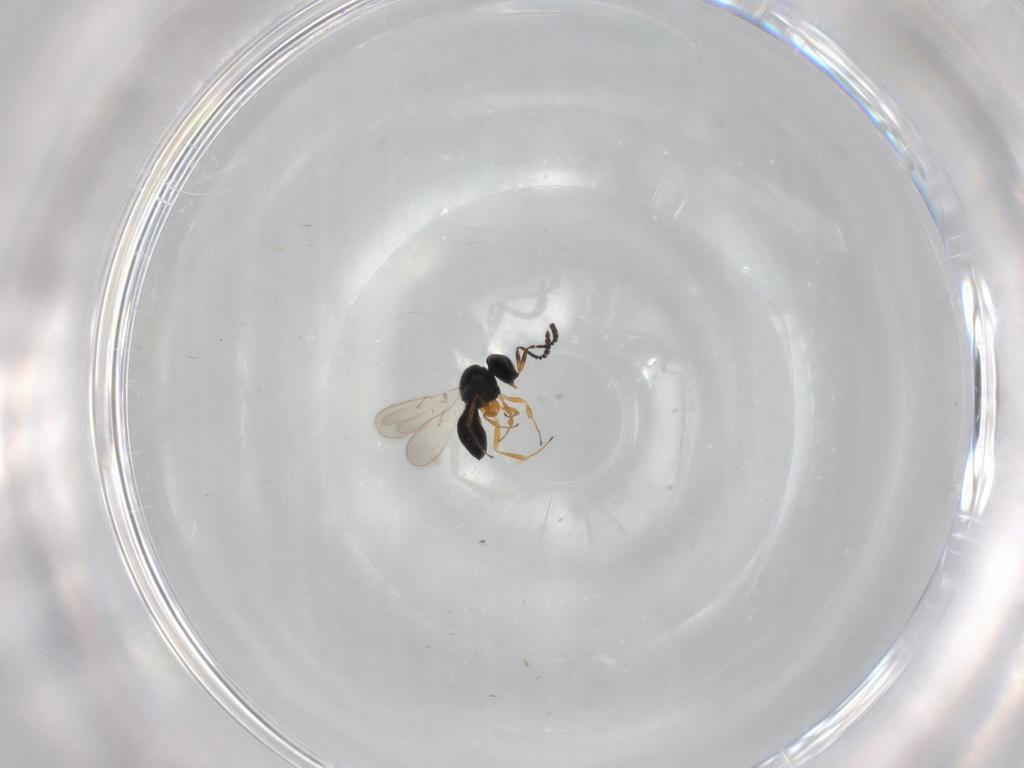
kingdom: Animalia
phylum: Arthropoda
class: Insecta
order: Hymenoptera
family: Scelionidae
